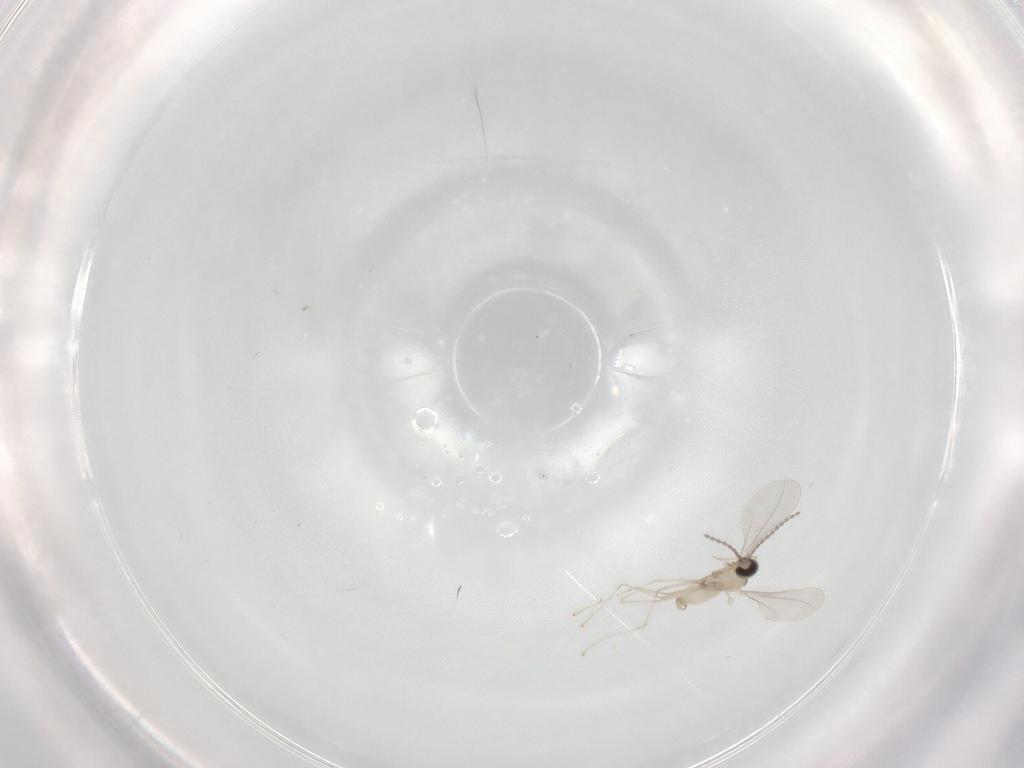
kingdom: Animalia
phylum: Arthropoda
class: Insecta
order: Diptera
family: Cecidomyiidae
